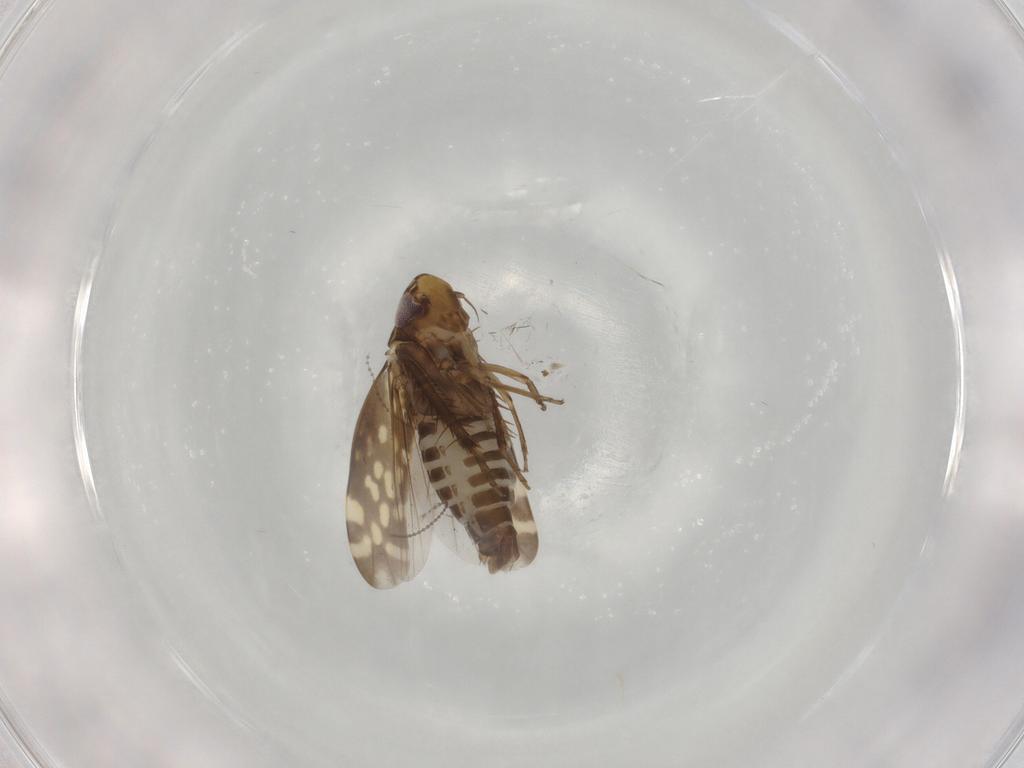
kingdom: Animalia
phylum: Arthropoda
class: Insecta
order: Hemiptera
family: Cicadellidae
